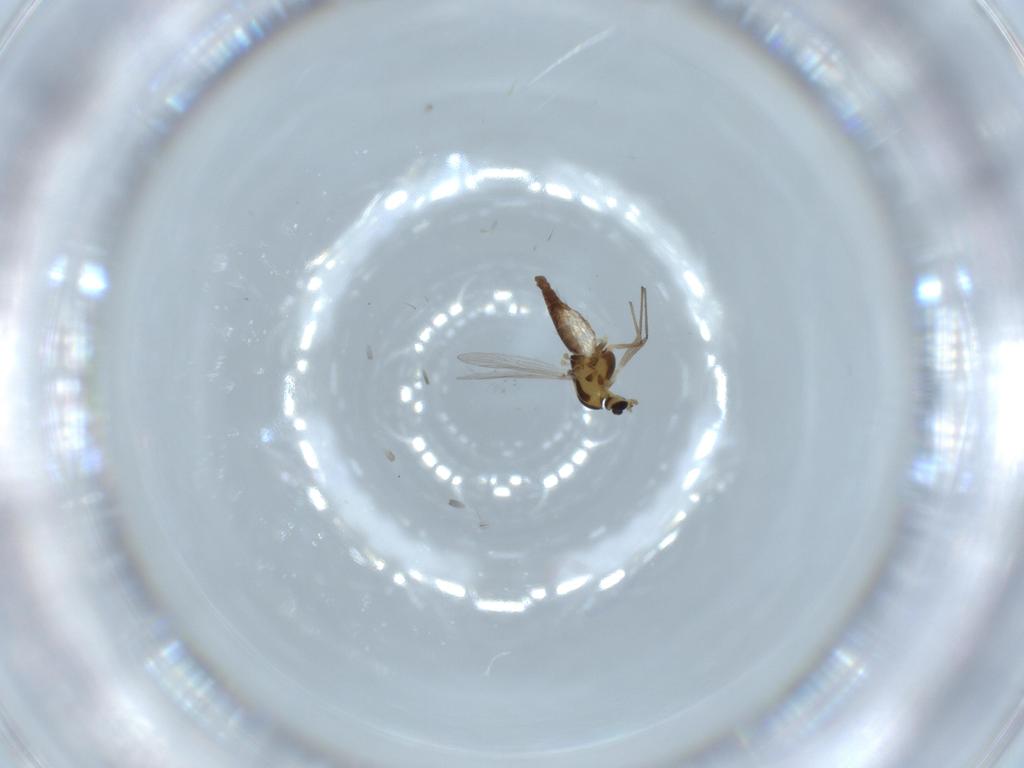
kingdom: Animalia
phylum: Arthropoda
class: Insecta
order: Diptera
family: Chironomidae
